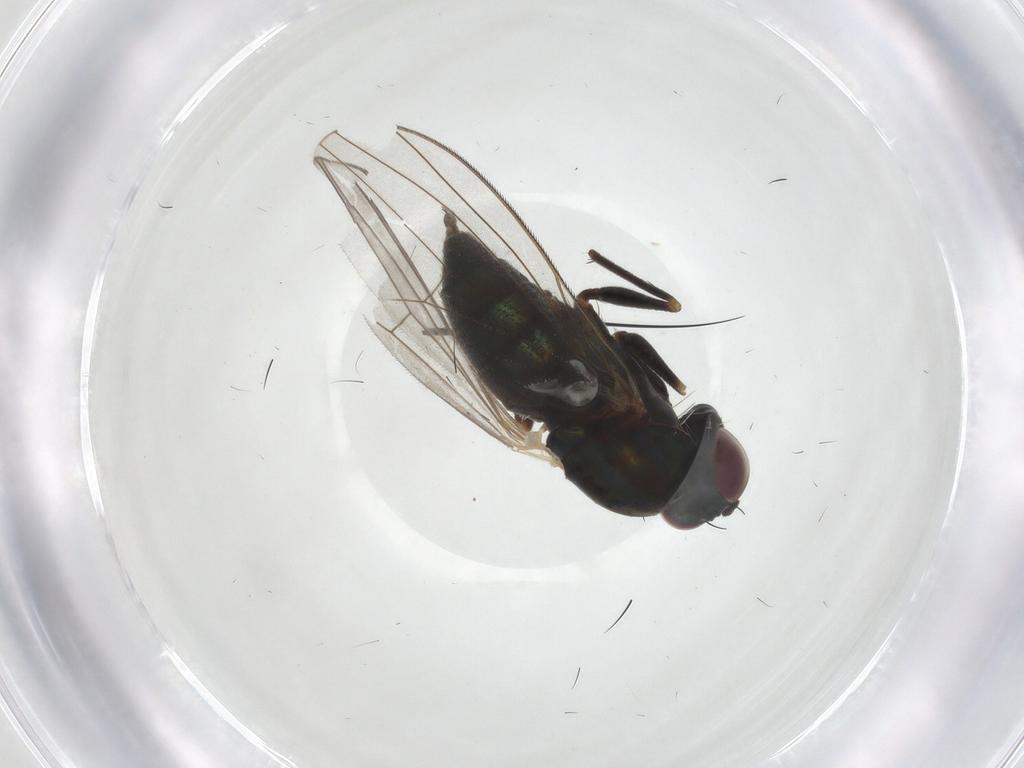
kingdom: Animalia
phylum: Arthropoda
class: Insecta
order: Diptera
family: Dolichopodidae
